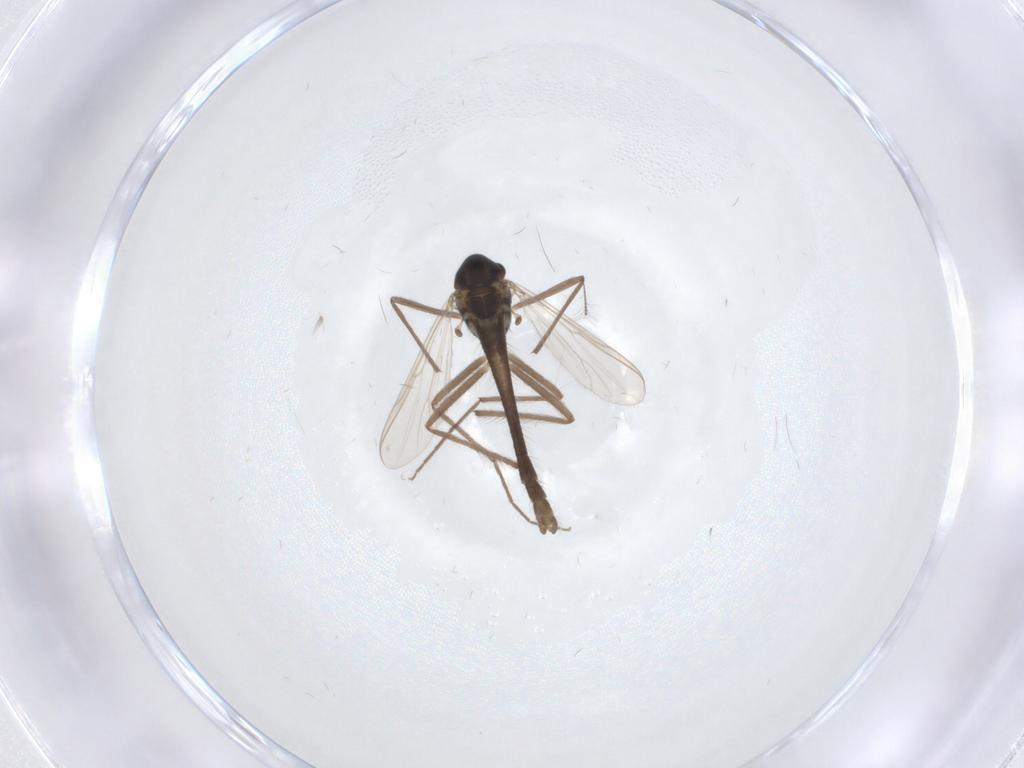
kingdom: Animalia
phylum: Arthropoda
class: Insecta
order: Diptera
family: Chironomidae
